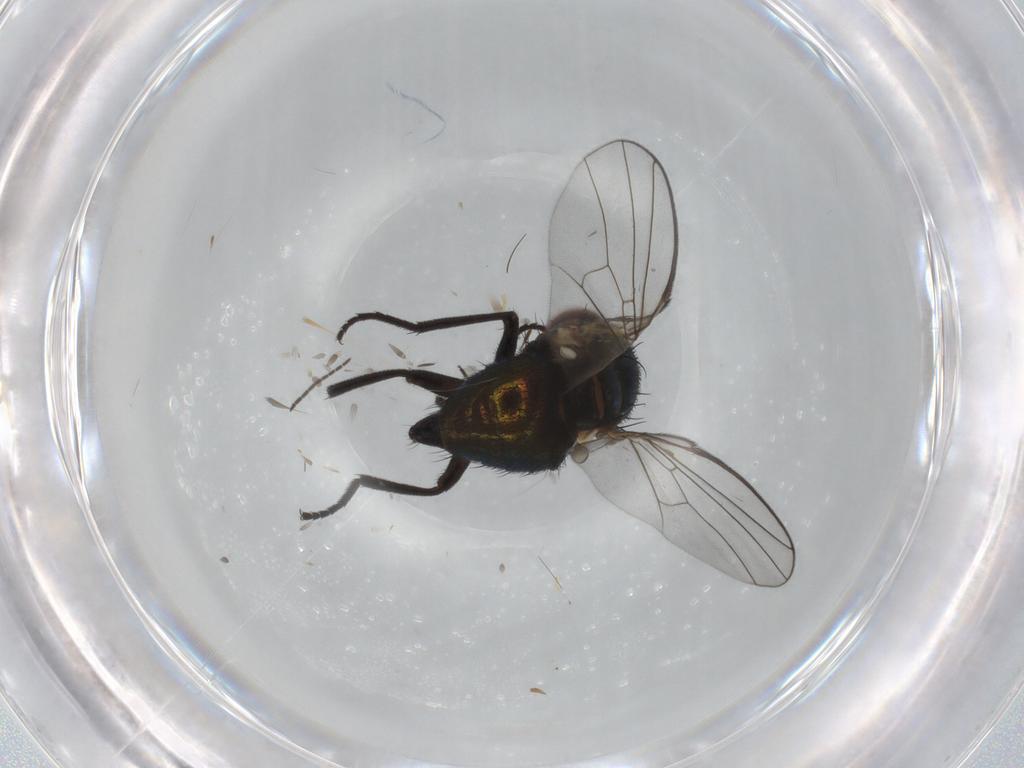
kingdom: Animalia
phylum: Arthropoda
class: Insecta
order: Diptera
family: Agromyzidae
